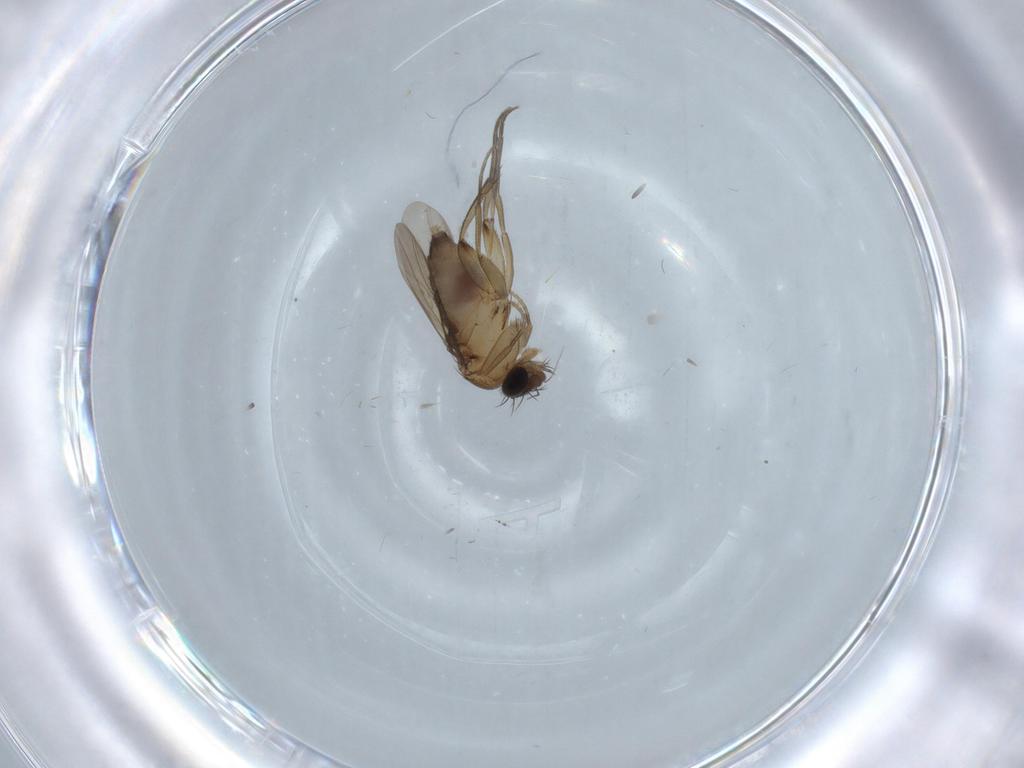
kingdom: Animalia
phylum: Arthropoda
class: Insecta
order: Diptera
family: Phoridae
